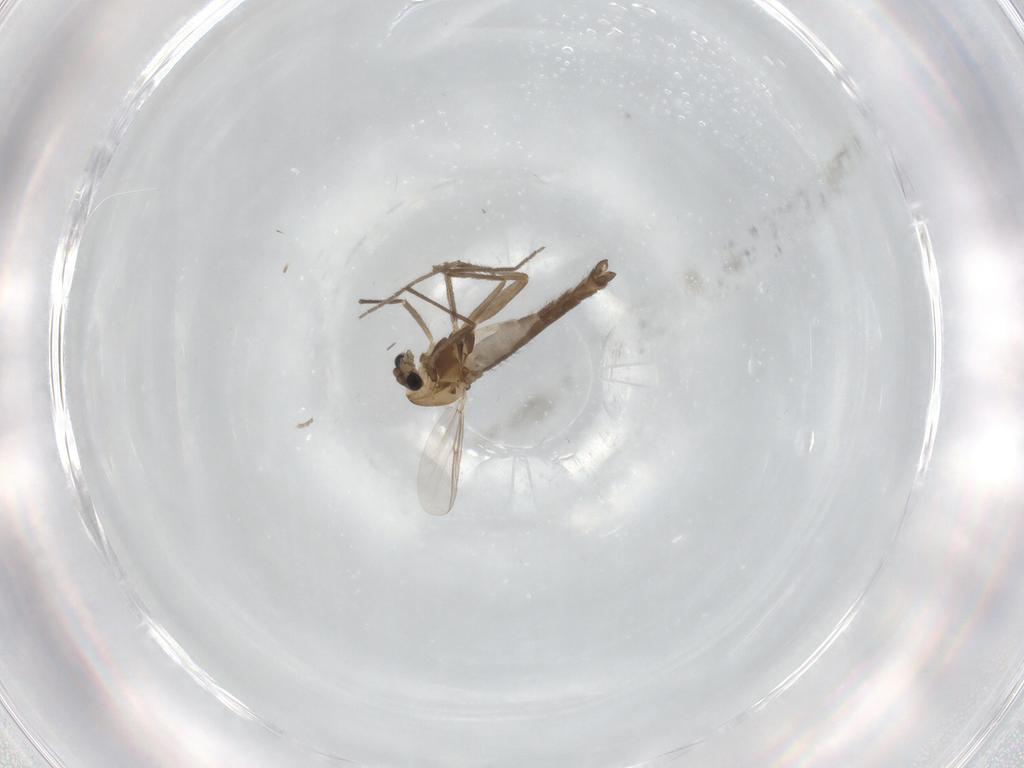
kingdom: Animalia
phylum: Arthropoda
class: Insecta
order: Diptera
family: Chironomidae
